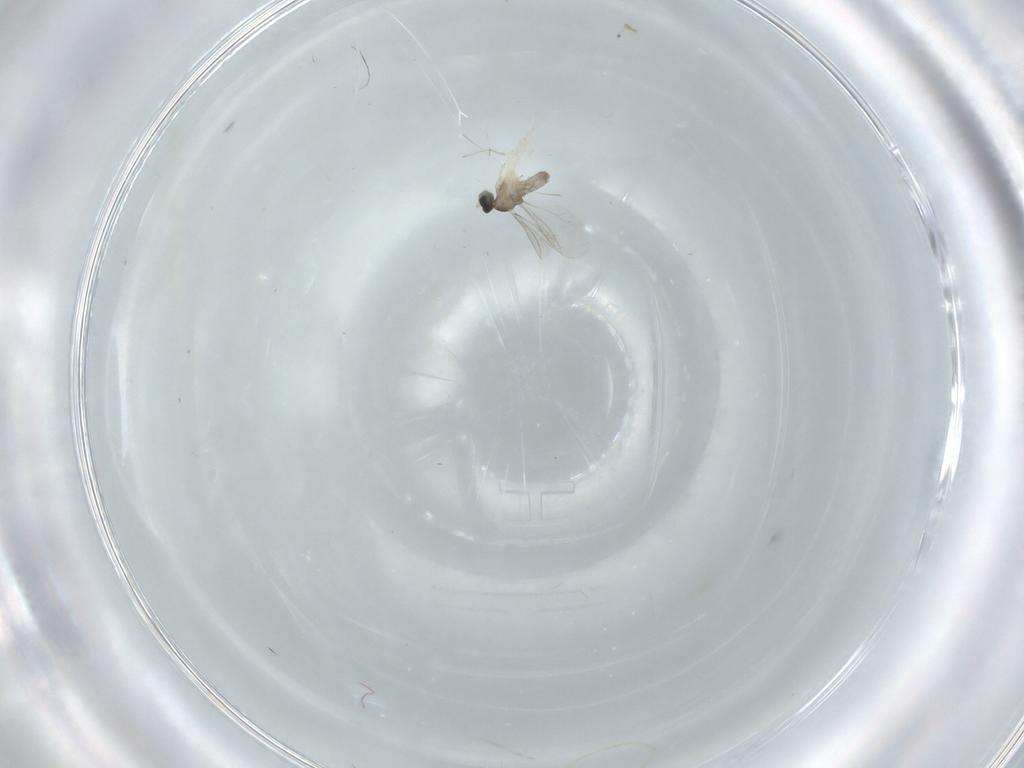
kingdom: Animalia
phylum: Arthropoda
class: Insecta
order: Diptera
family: Cecidomyiidae
